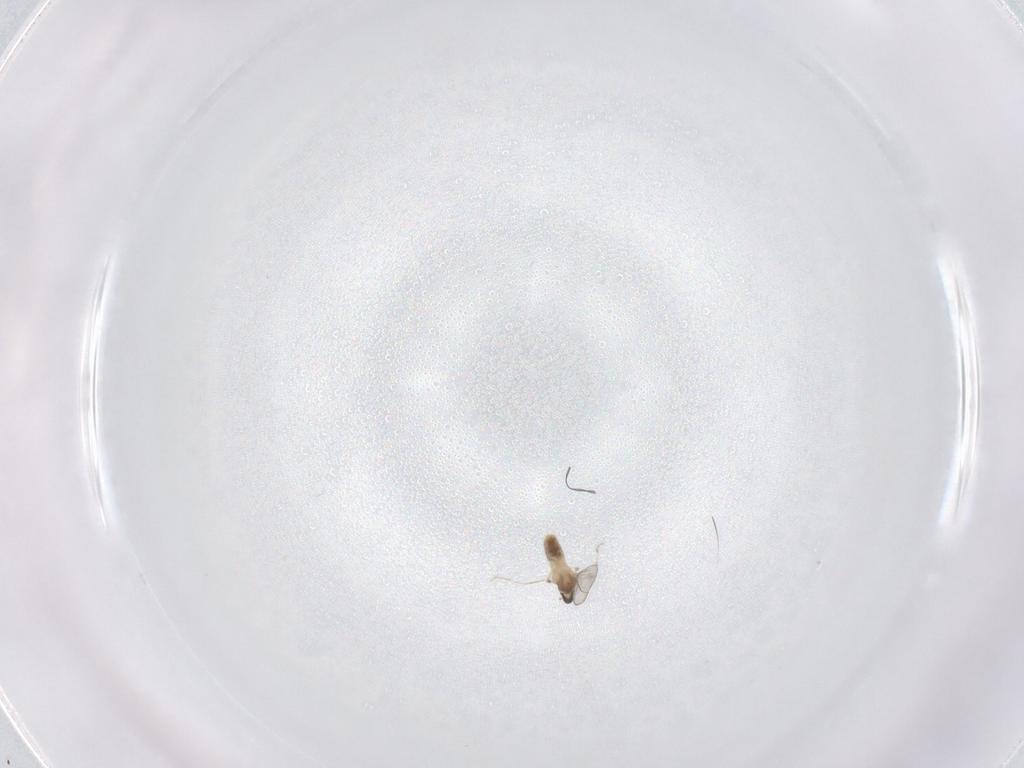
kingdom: Animalia
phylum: Arthropoda
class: Insecta
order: Diptera
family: Cecidomyiidae
